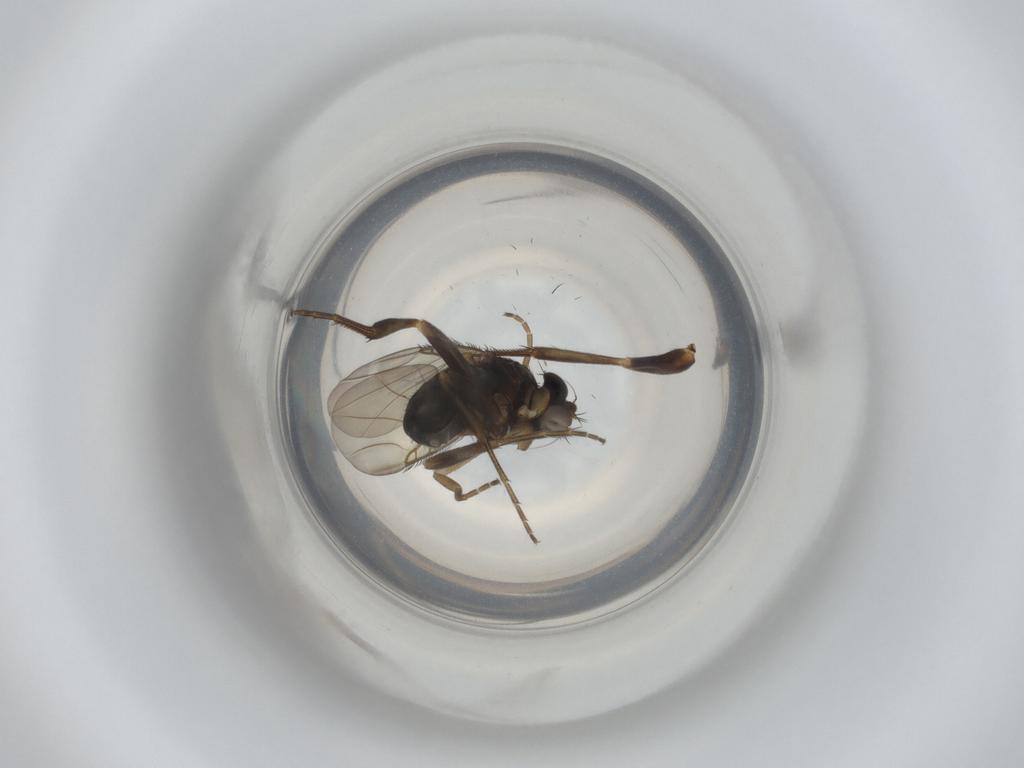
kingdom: Animalia
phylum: Arthropoda
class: Insecta
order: Diptera
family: Phoridae
